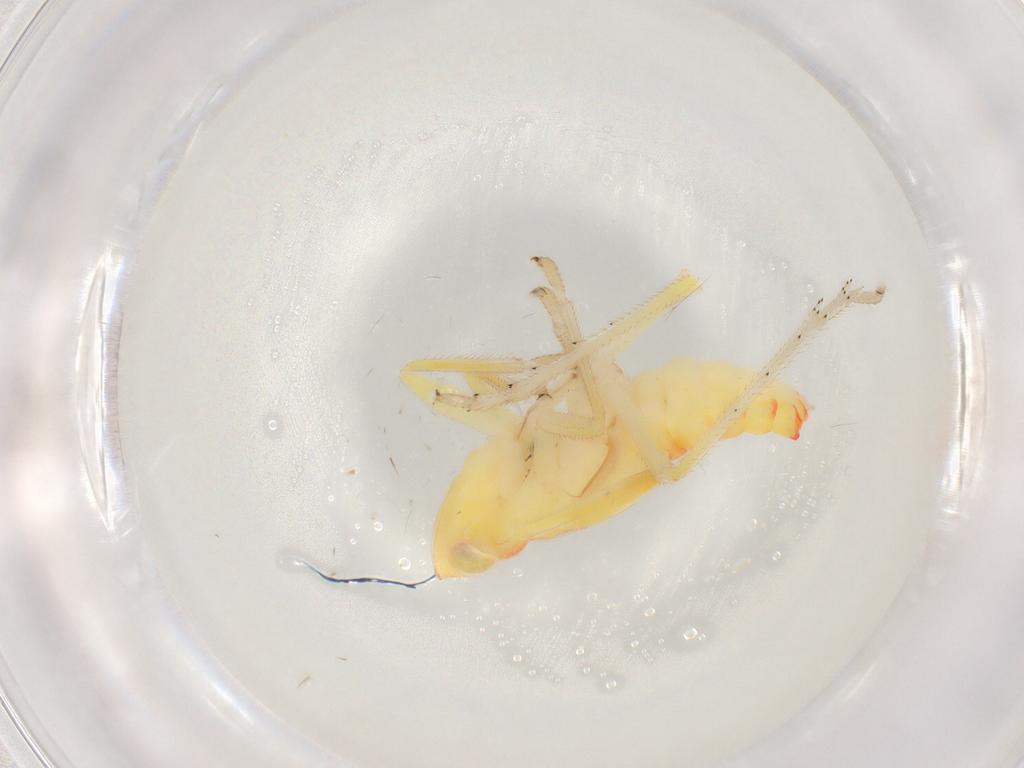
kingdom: Animalia
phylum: Arthropoda
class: Insecta
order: Hemiptera
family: Tropiduchidae
